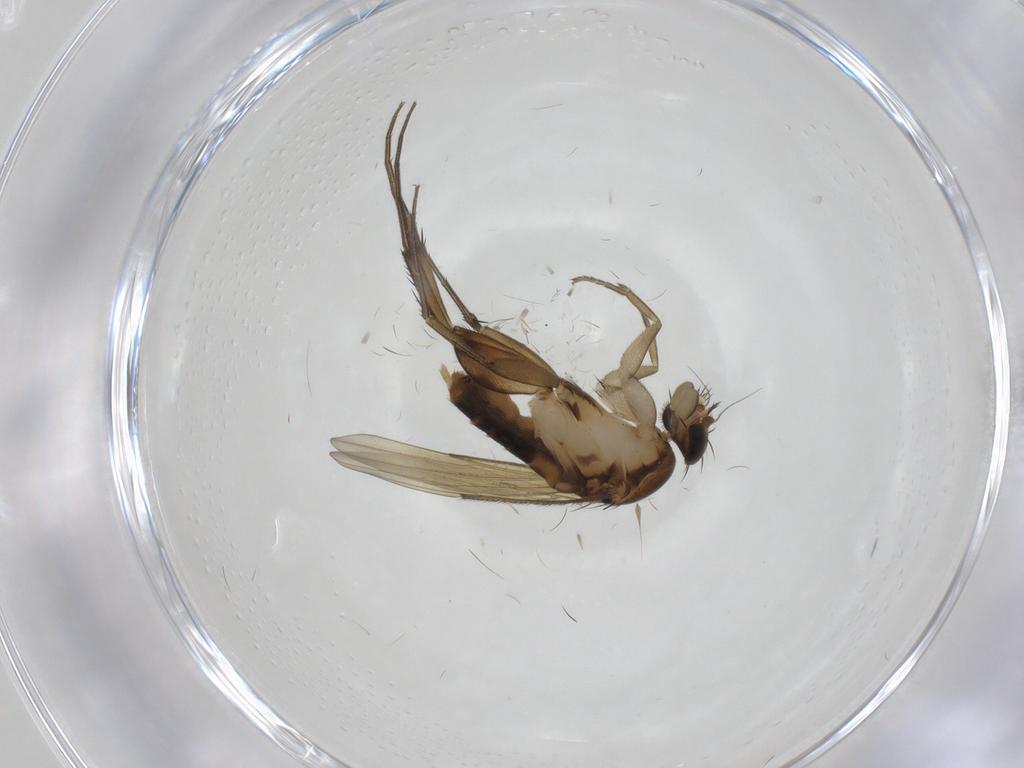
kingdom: Animalia
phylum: Arthropoda
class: Insecta
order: Diptera
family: Phoridae
